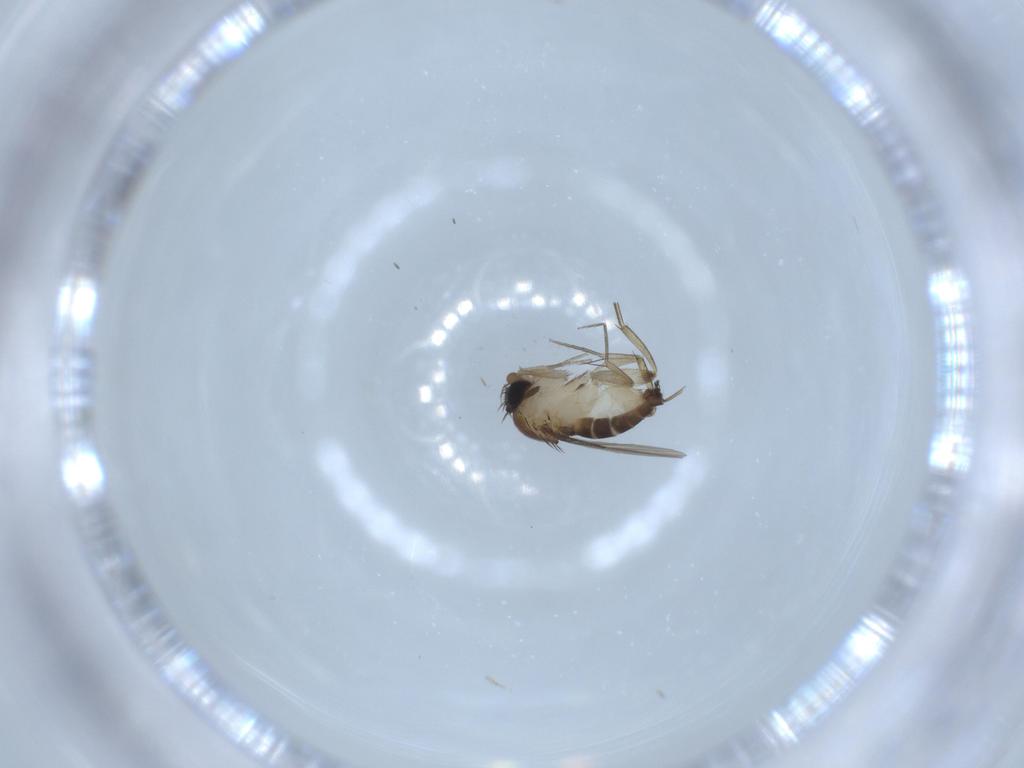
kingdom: Animalia
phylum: Arthropoda
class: Insecta
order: Diptera
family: Phoridae
